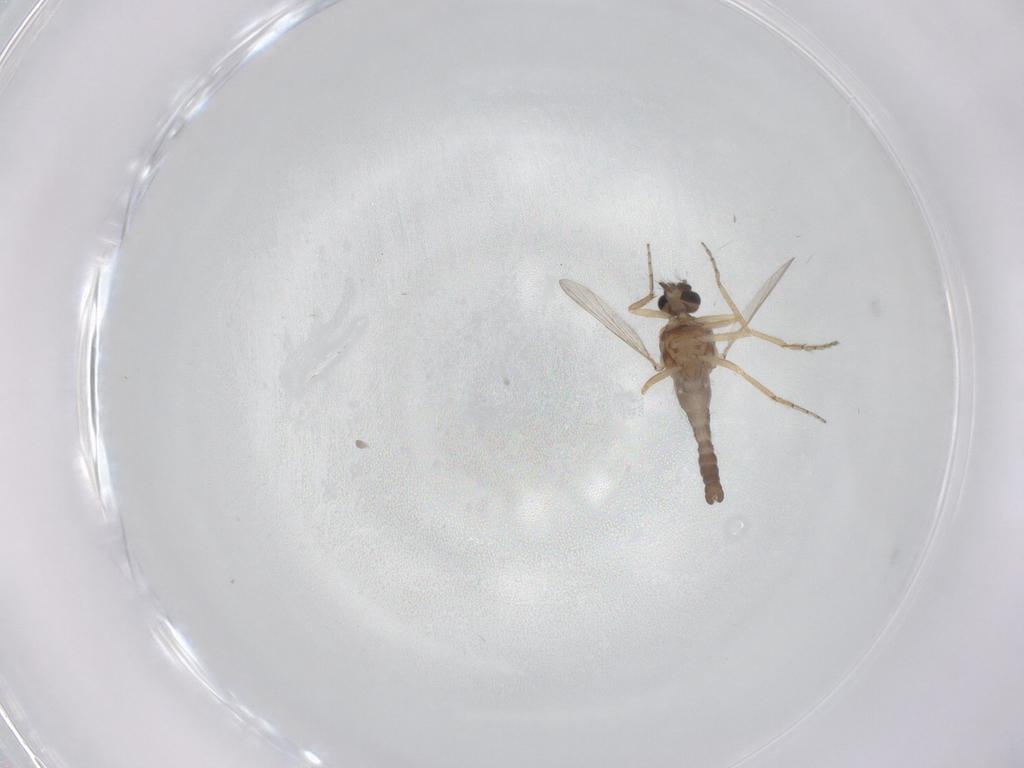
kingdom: Animalia
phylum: Arthropoda
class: Insecta
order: Diptera
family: Ceratopogonidae
